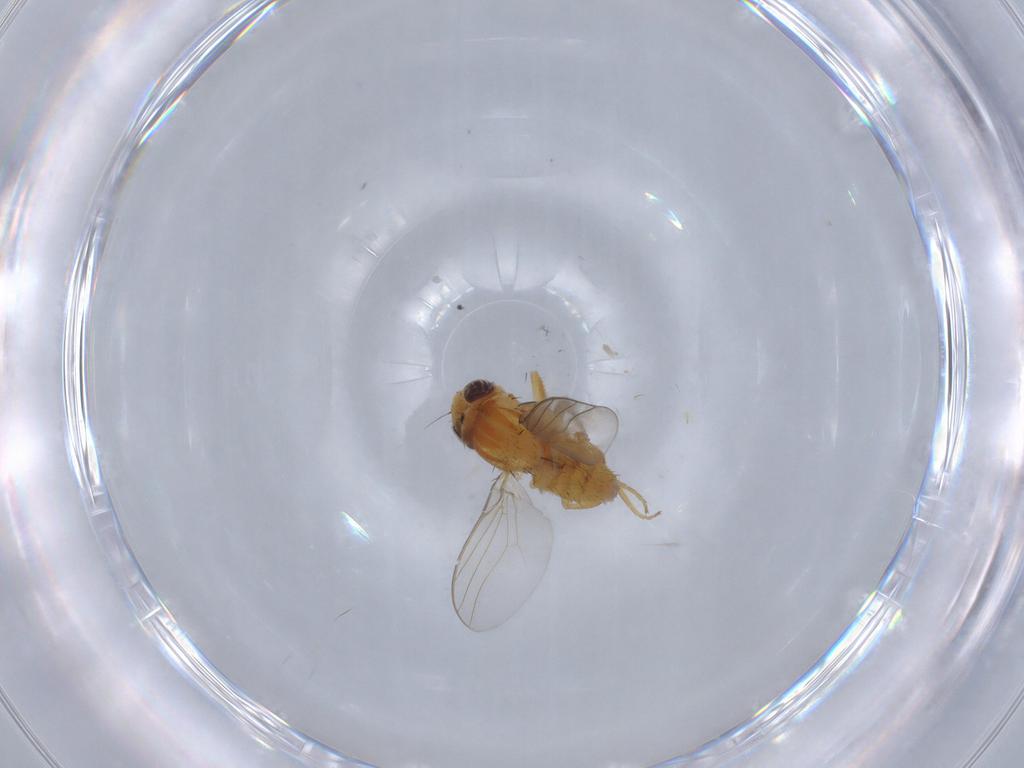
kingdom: Animalia
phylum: Arthropoda
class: Insecta
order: Diptera
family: Chloropidae
